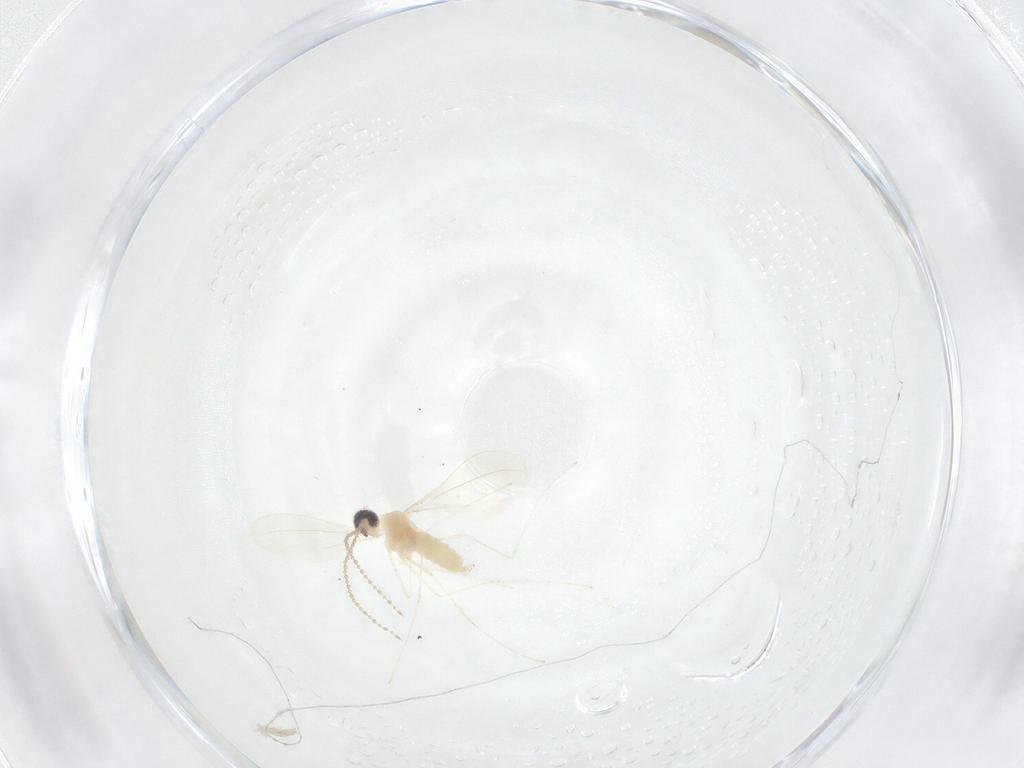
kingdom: Animalia
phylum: Arthropoda
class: Insecta
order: Diptera
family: Cecidomyiidae
